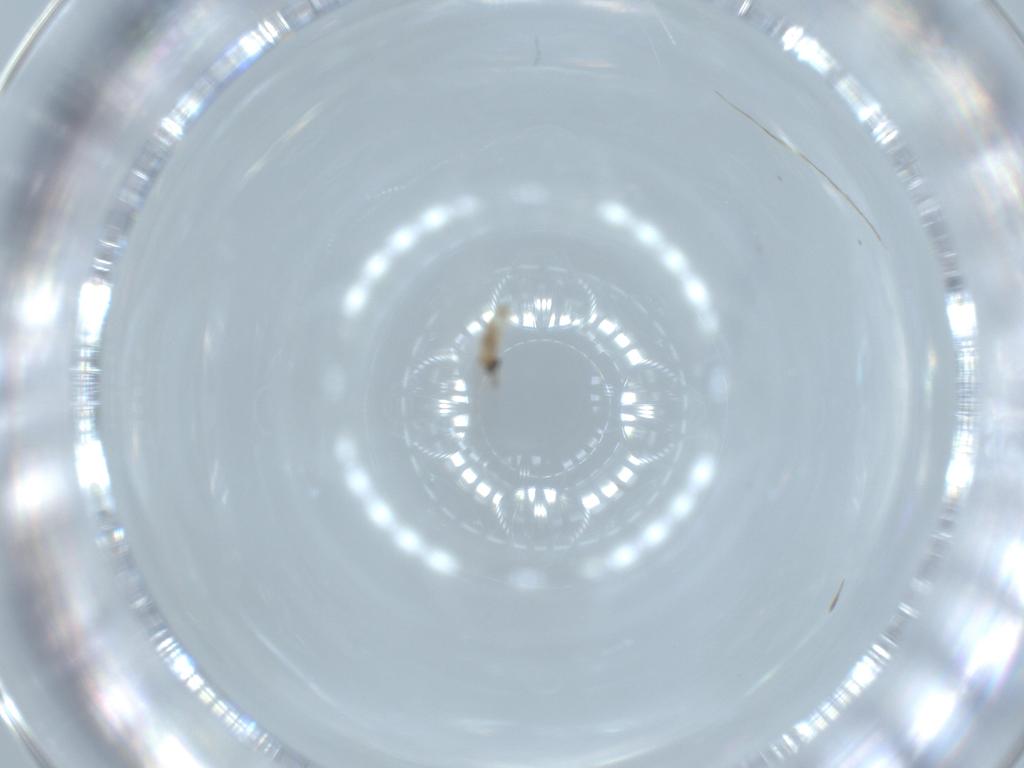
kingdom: Animalia
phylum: Arthropoda
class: Insecta
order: Diptera
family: Cecidomyiidae
